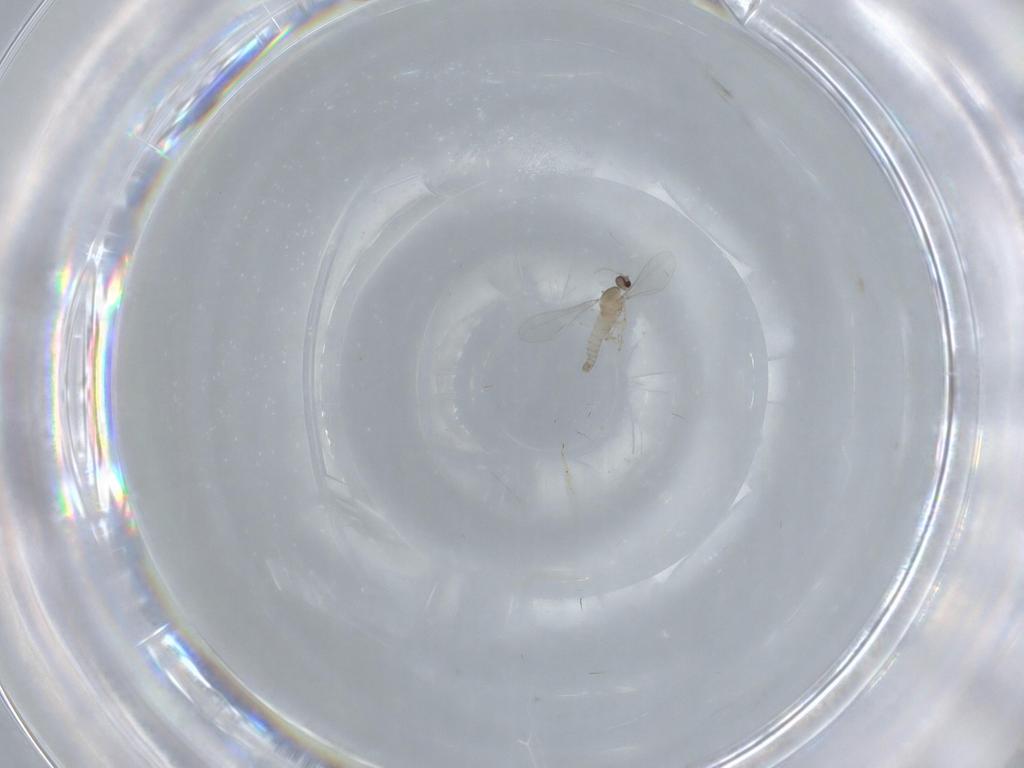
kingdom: Animalia
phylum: Arthropoda
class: Insecta
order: Diptera
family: Cecidomyiidae
